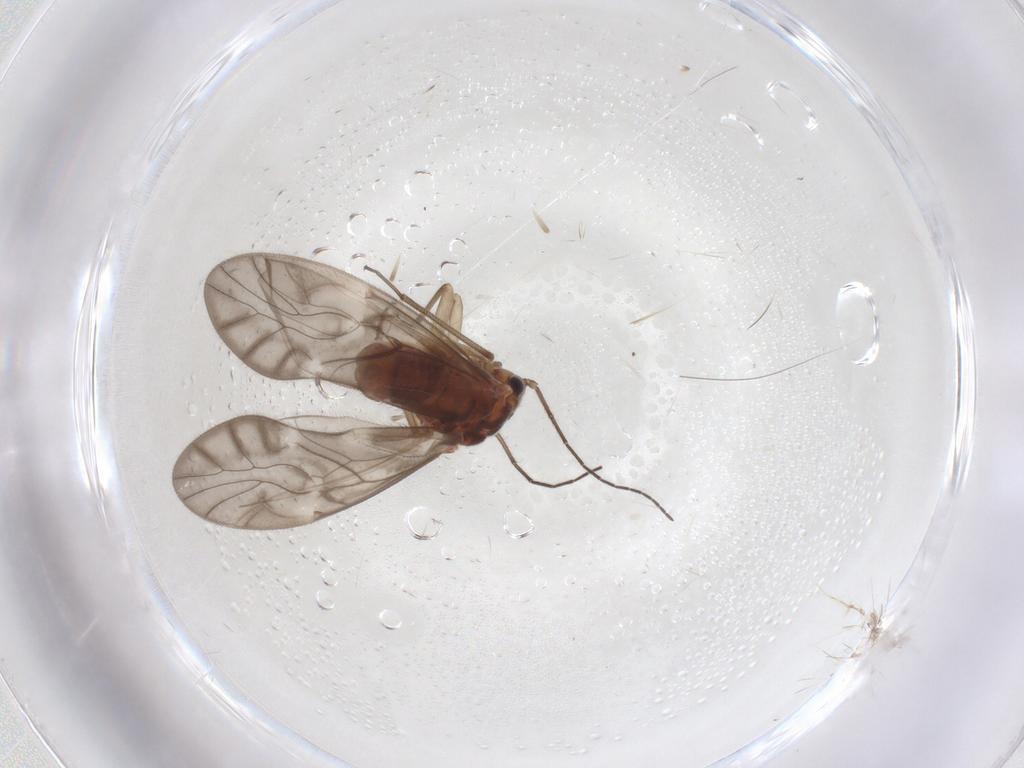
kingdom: Animalia
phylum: Arthropoda
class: Insecta
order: Psocodea
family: Caeciliusidae
